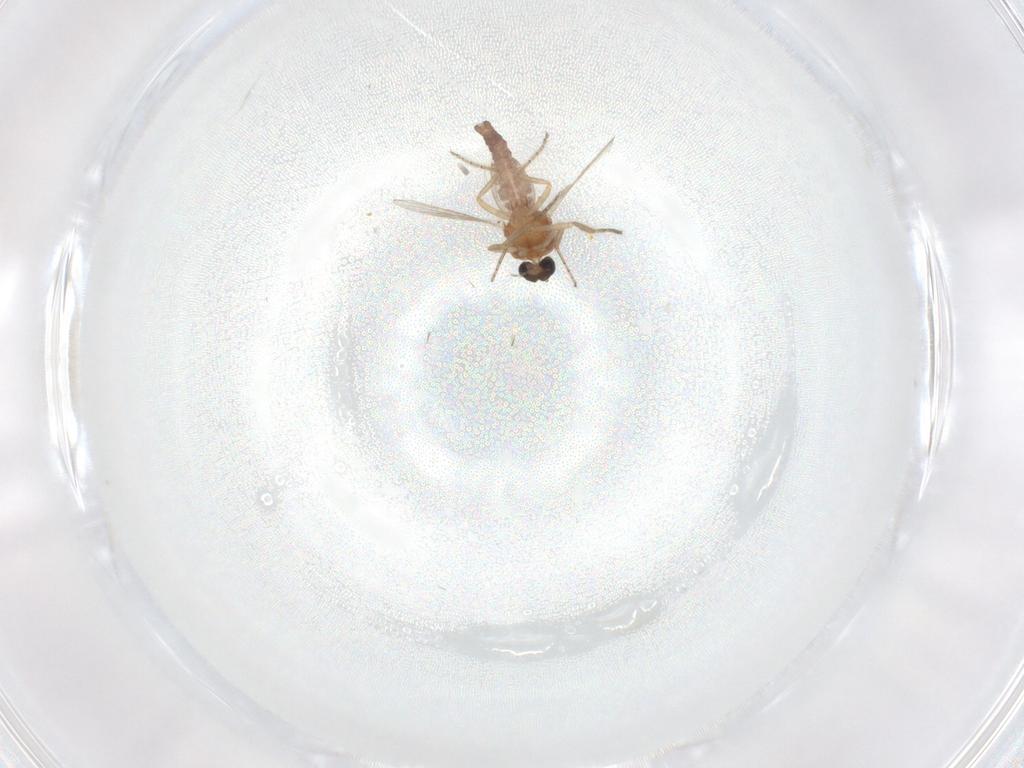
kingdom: Animalia
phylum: Arthropoda
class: Insecta
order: Diptera
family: Ceratopogonidae
